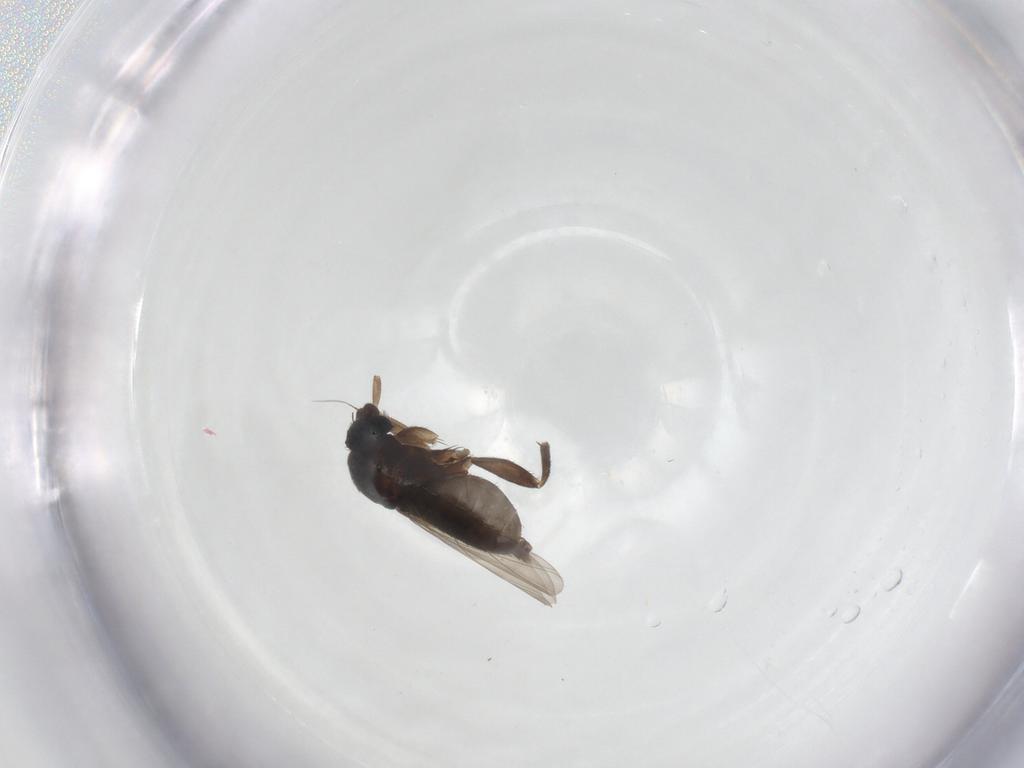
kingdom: Animalia
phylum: Arthropoda
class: Insecta
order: Diptera
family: Phoridae
